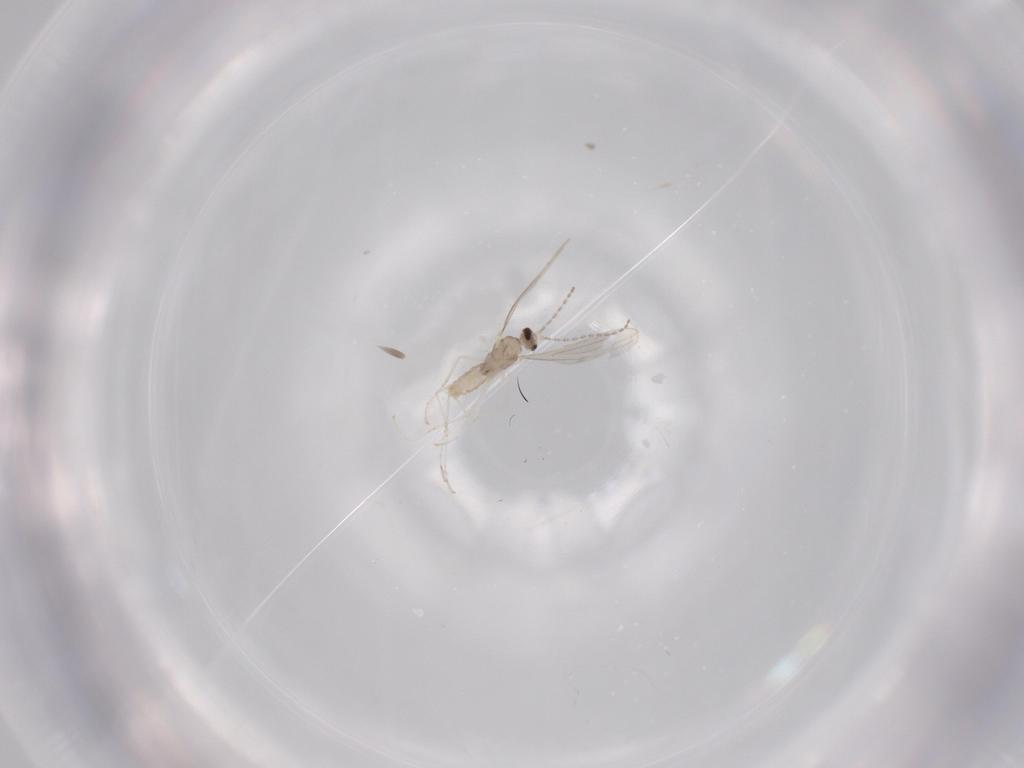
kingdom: Animalia
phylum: Arthropoda
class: Insecta
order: Diptera
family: Cecidomyiidae
